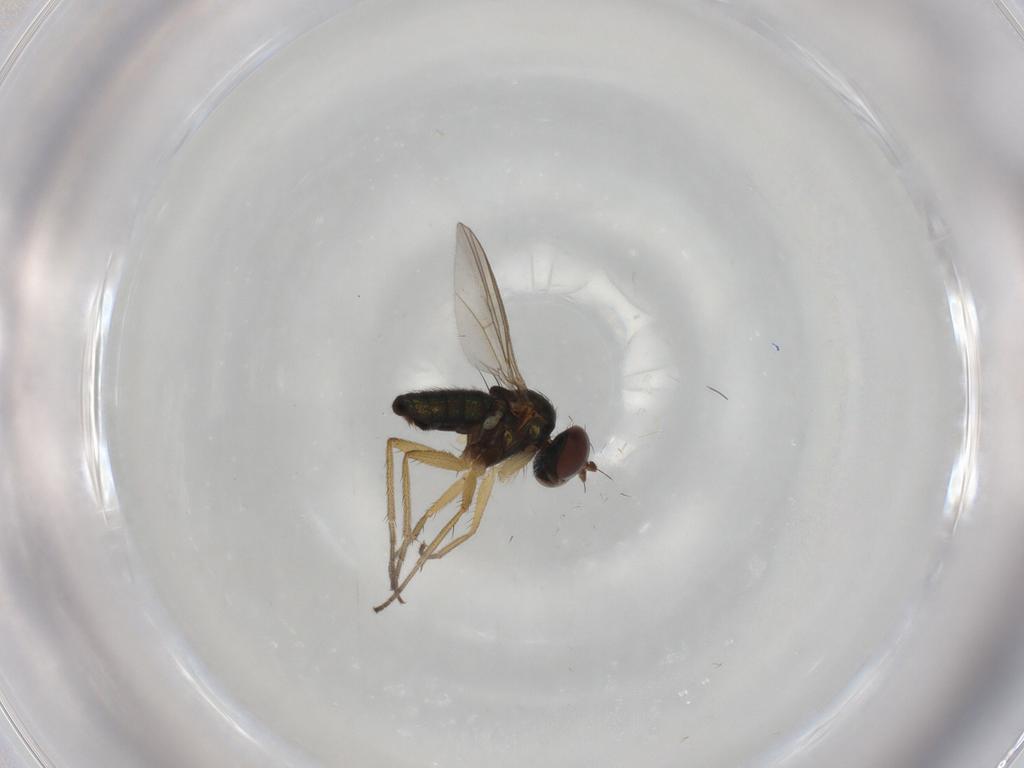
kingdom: Animalia
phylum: Arthropoda
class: Insecta
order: Diptera
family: Dolichopodidae
